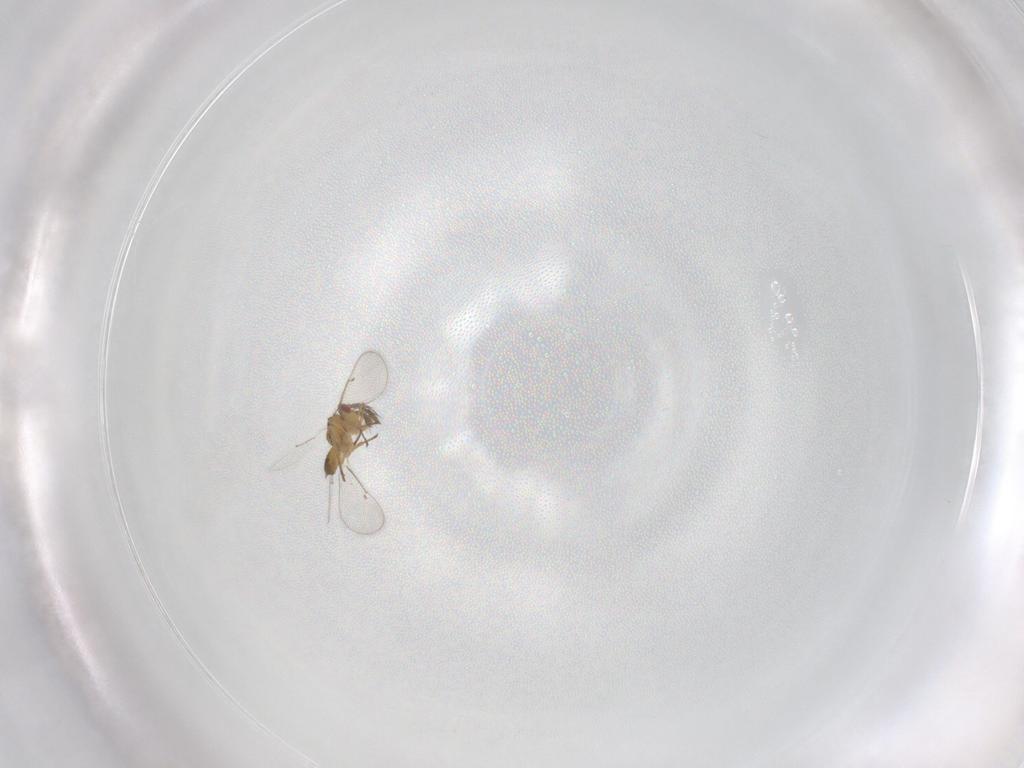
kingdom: Animalia
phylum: Arthropoda
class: Insecta
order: Hymenoptera
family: Eulophidae
